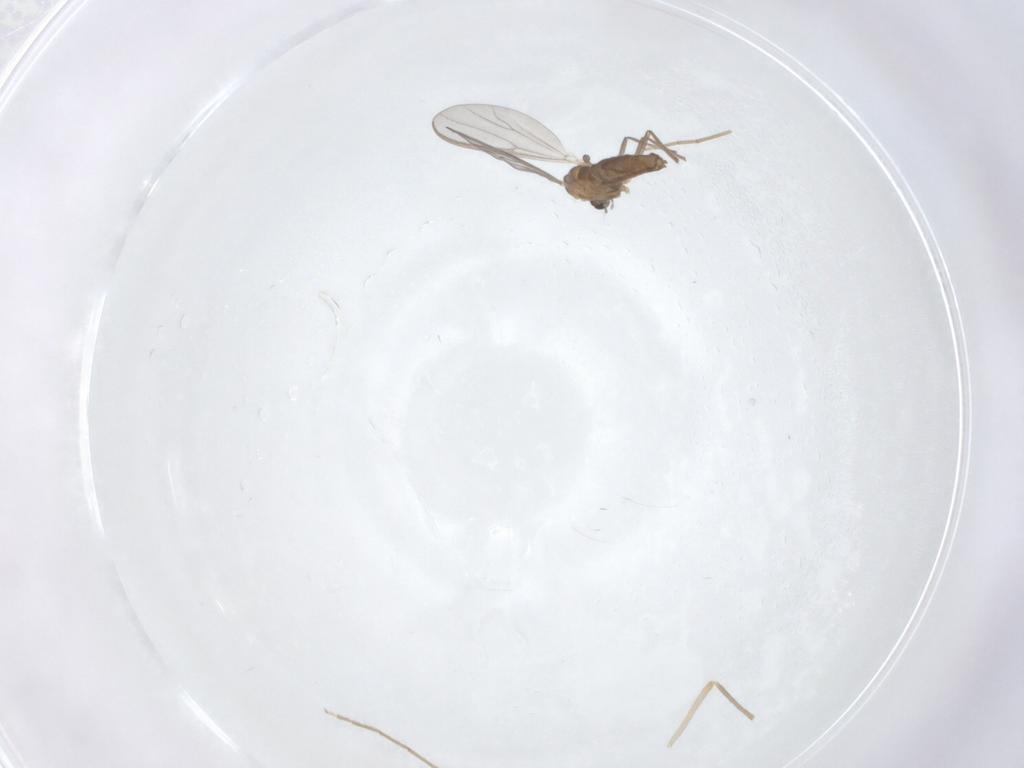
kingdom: Animalia
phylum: Arthropoda
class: Insecta
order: Diptera
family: Chironomidae
